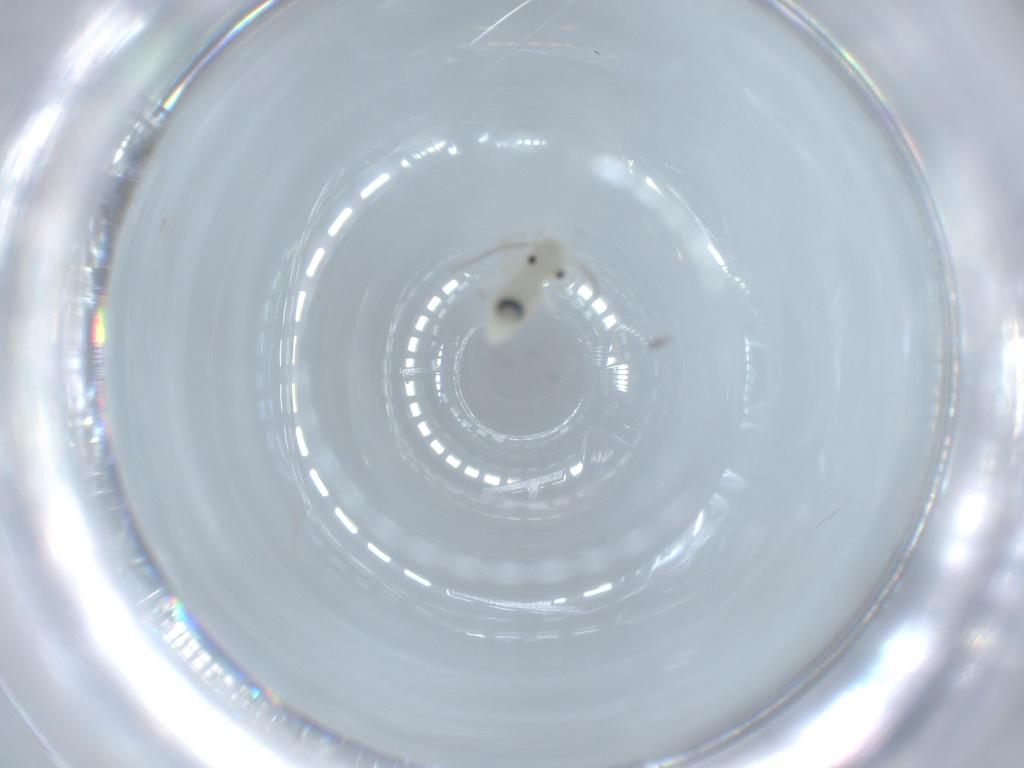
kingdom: Animalia
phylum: Arthropoda
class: Insecta
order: Psocodea
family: Caeciliusidae
